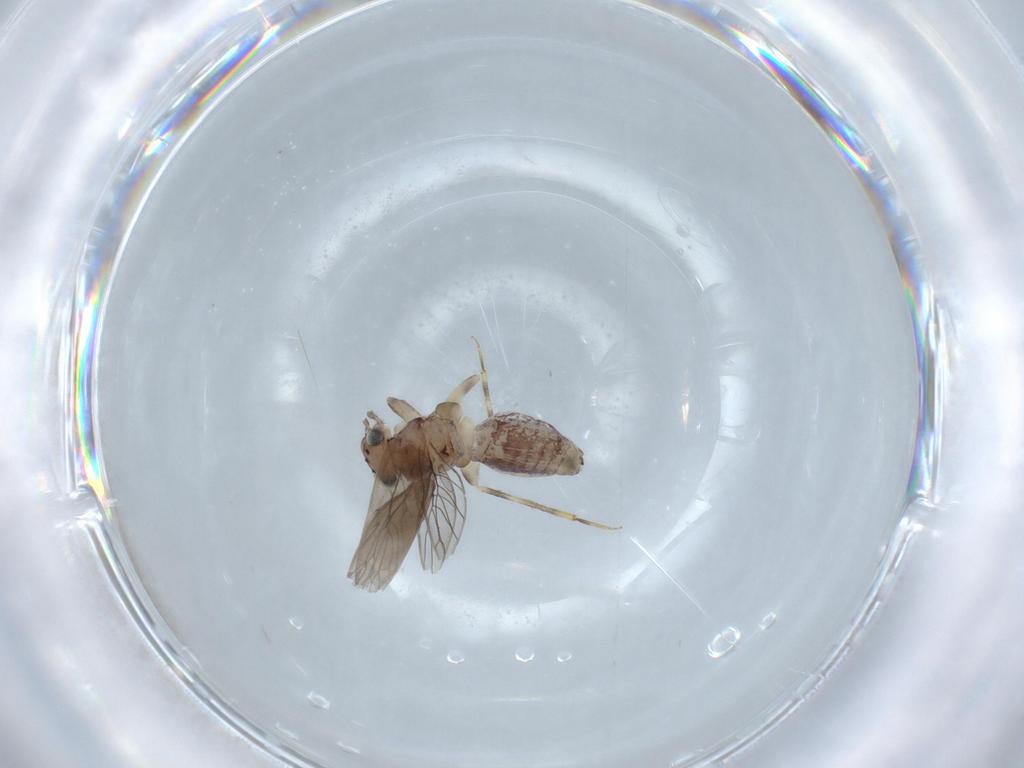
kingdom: Animalia
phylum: Arthropoda
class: Insecta
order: Psocodea
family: Lepidopsocidae
